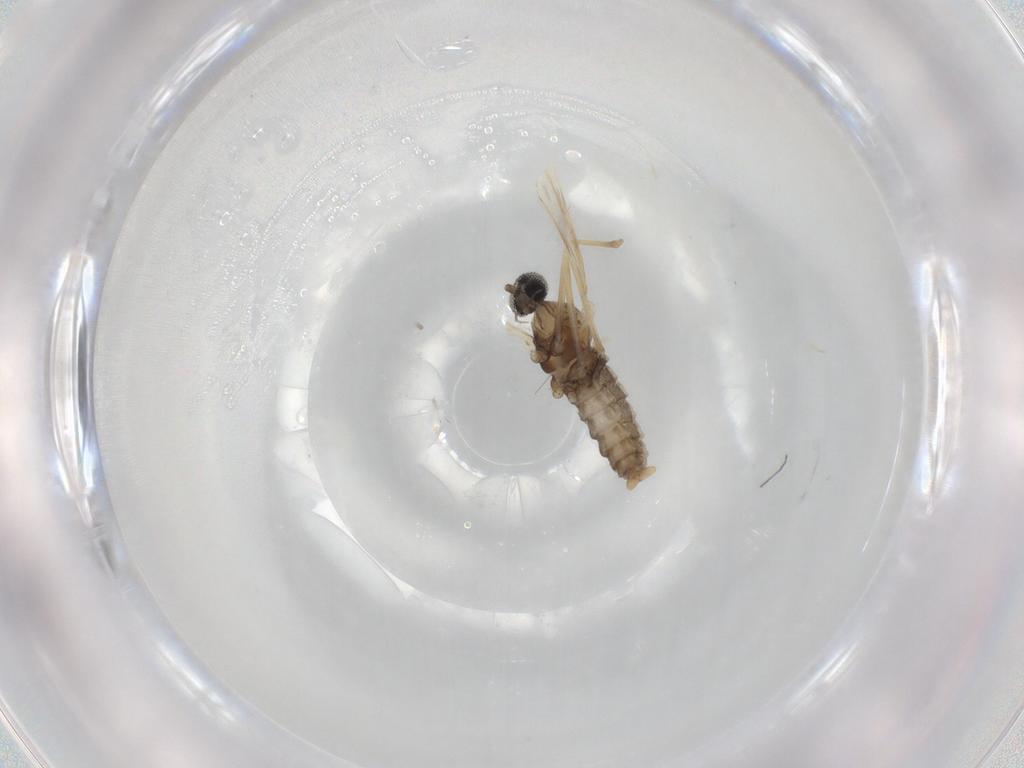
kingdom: Animalia
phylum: Arthropoda
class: Insecta
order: Diptera
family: Cecidomyiidae
